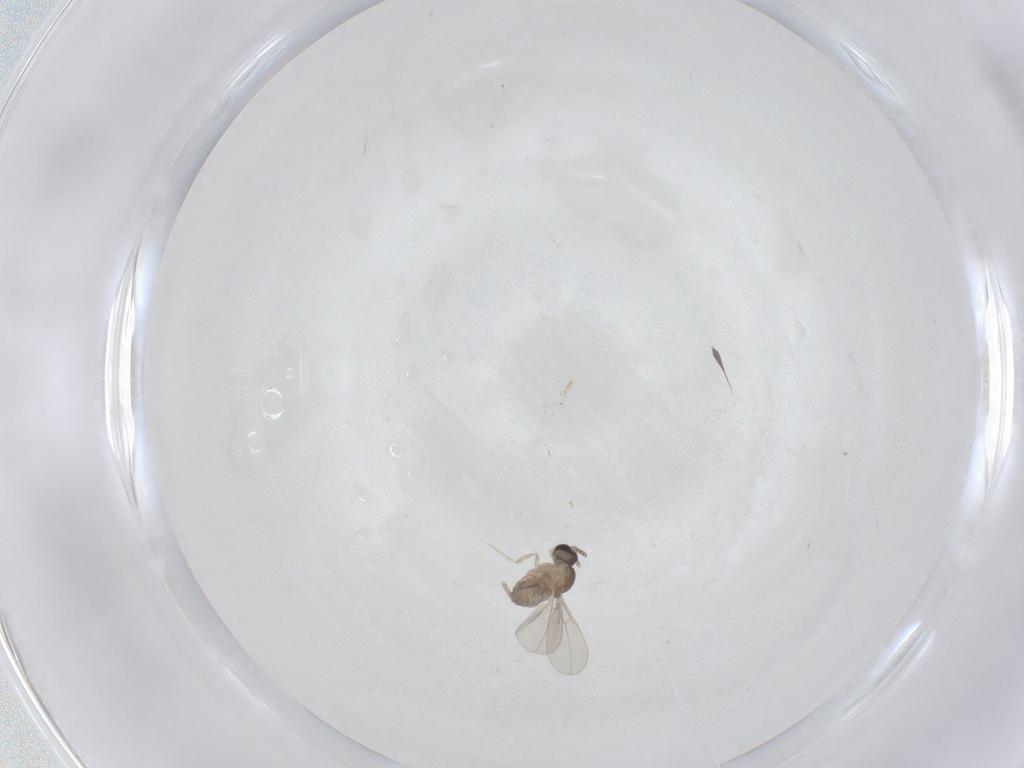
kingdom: Animalia
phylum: Arthropoda
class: Insecta
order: Diptera
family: Cecidomyiidae
